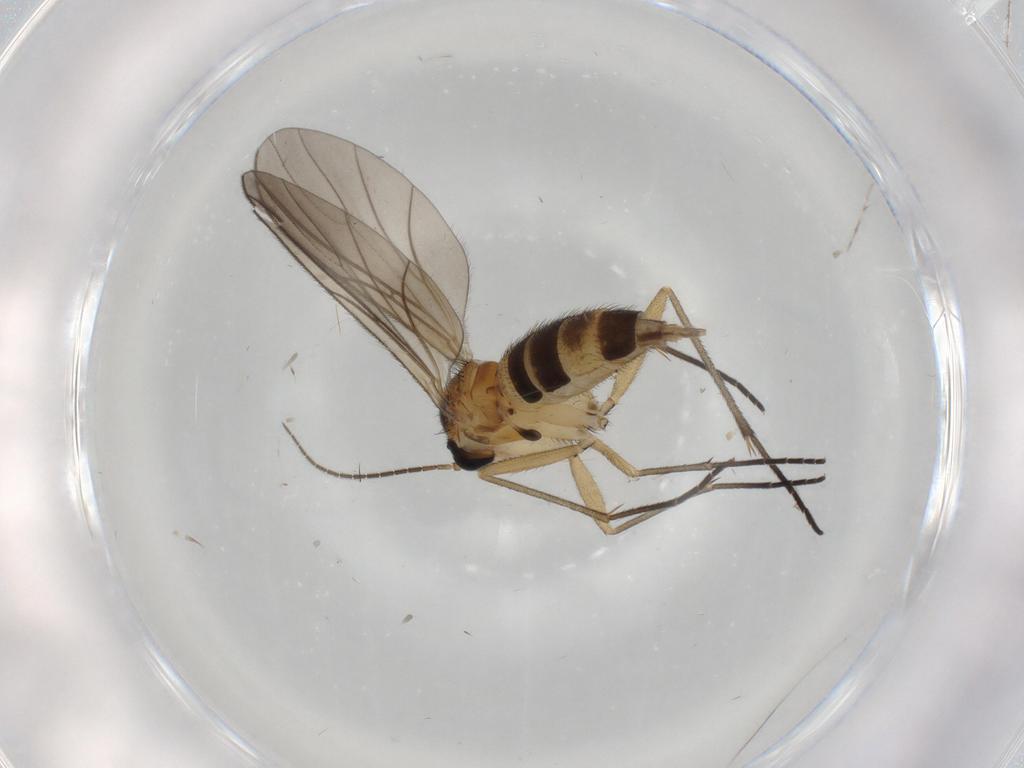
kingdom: Animalia
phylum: Arthropoda
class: Insecta
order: Diptera
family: Sciaridae
